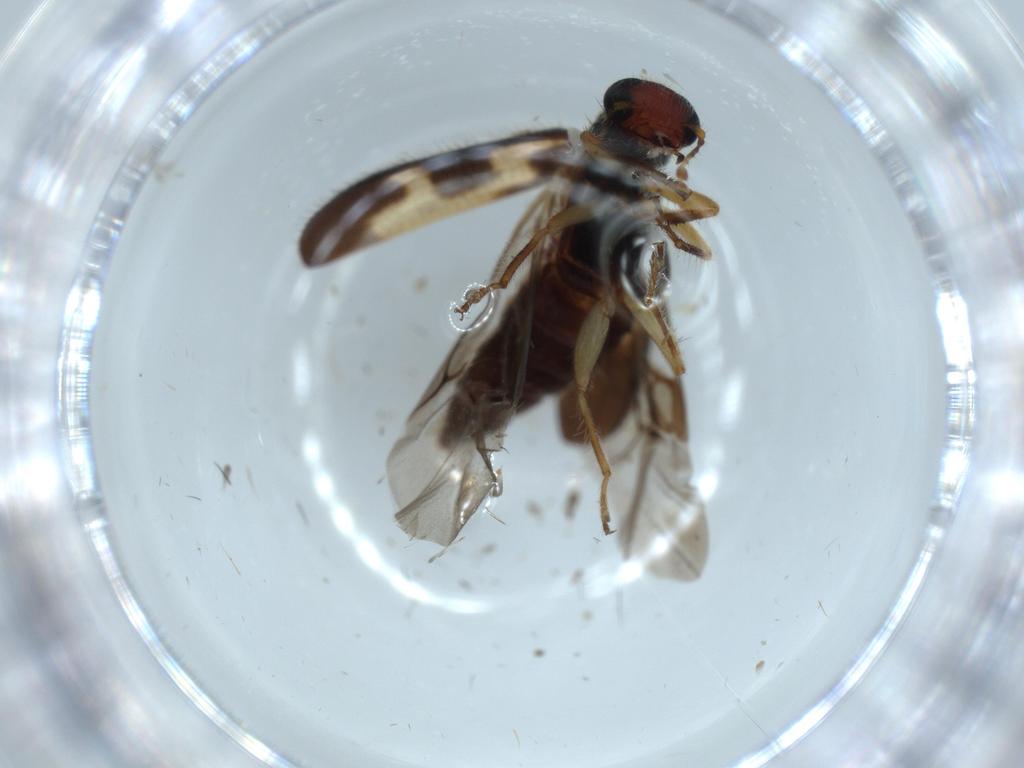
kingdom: Animalia
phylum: Arthropoda
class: Insecta
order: Coleoptera
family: Cleridae
